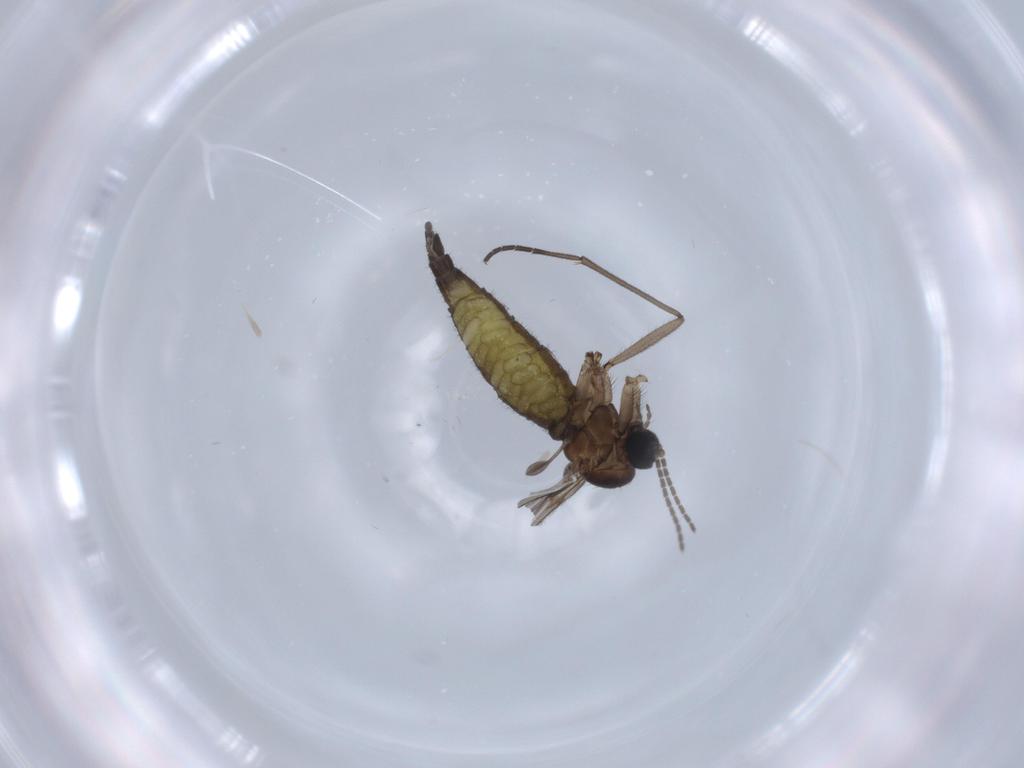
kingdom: Animalia
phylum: Arthropoda
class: Insecta
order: Diptera
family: Sciaridae
